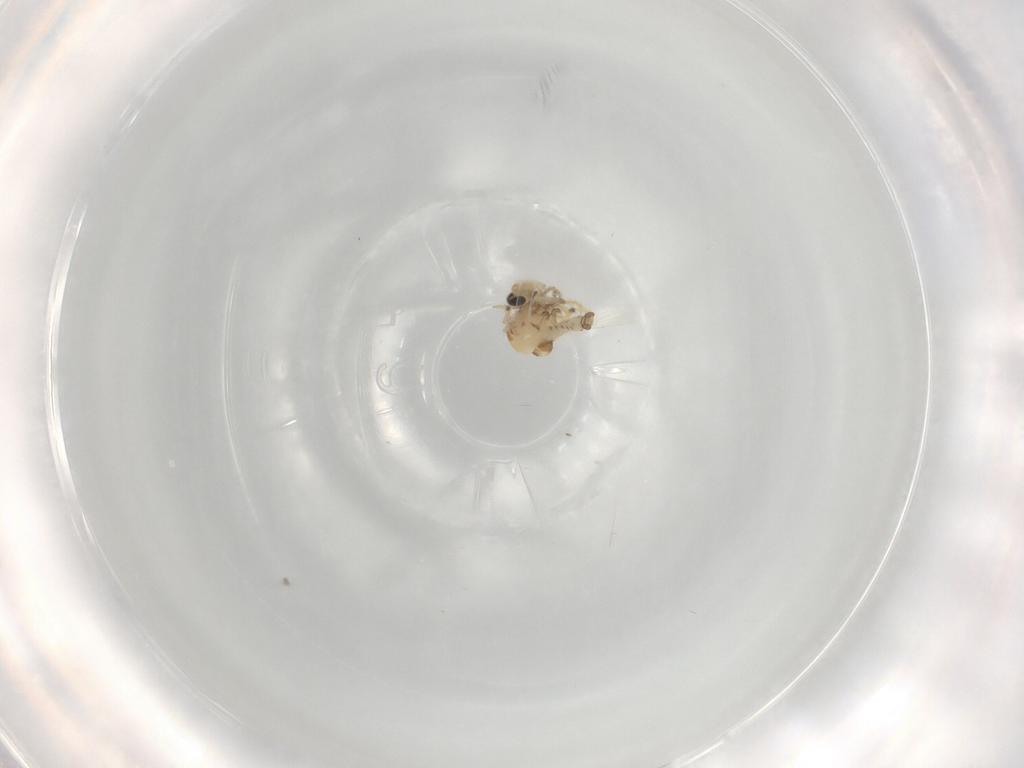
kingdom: Animalia
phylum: Arthropoda
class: Insecta
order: Diptera
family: Ceratopogonidae
